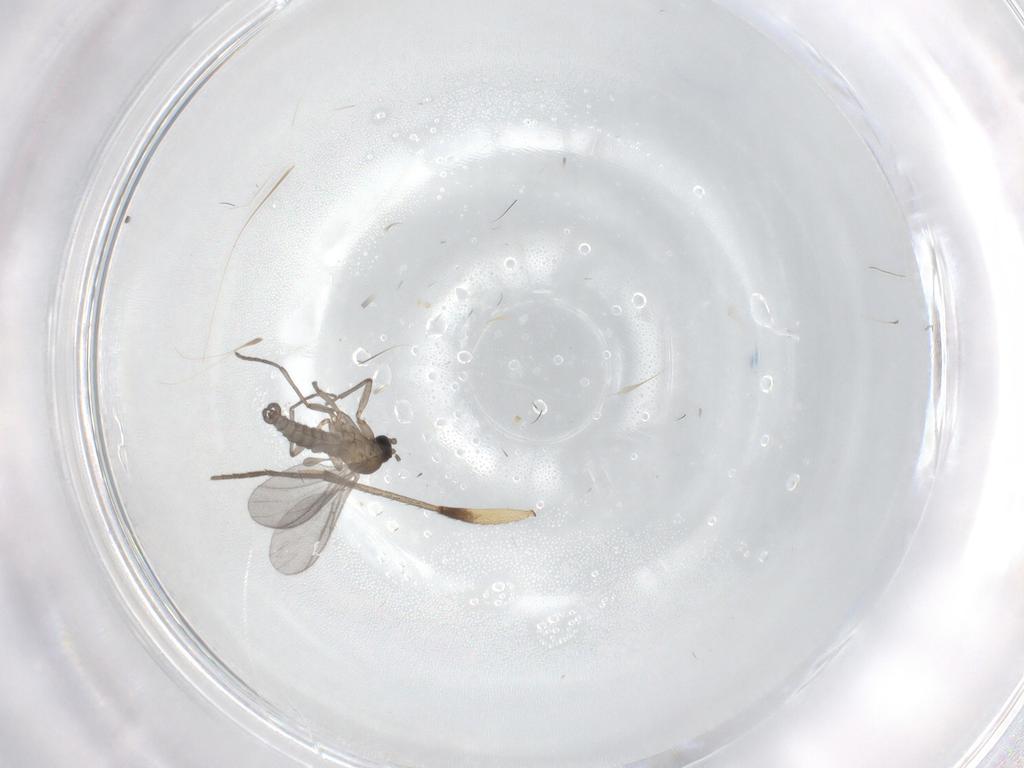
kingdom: Animalia
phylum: Arthropoda
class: Insecta
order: Diptera
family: Sciaridae
